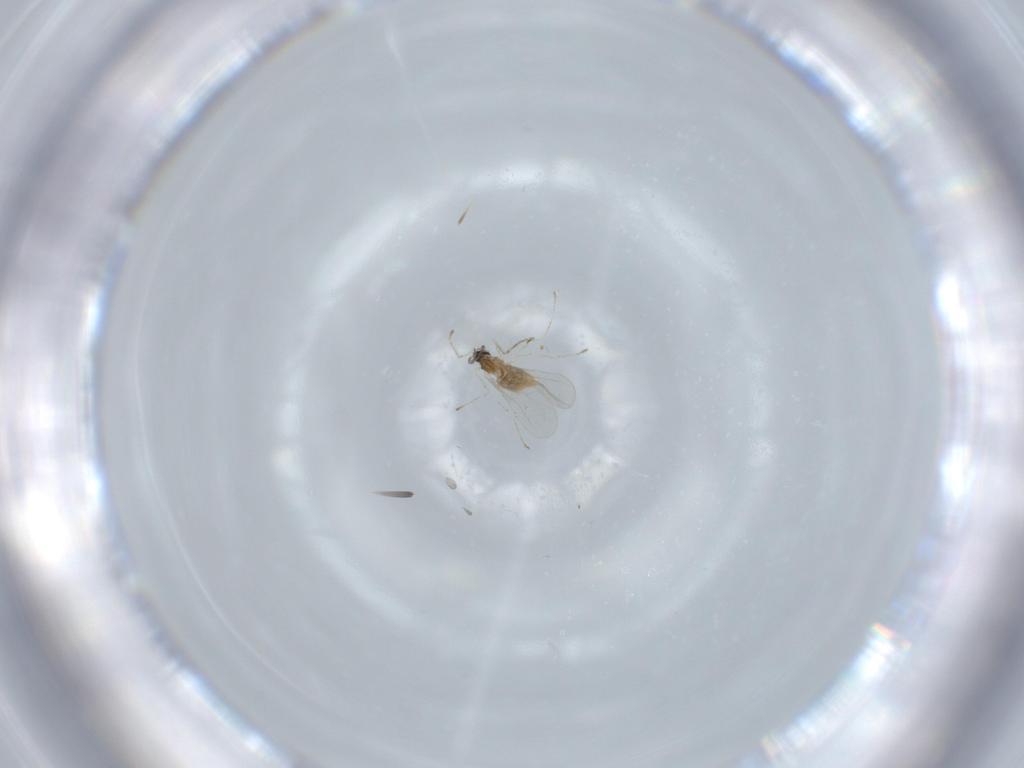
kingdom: Animalia
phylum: Arthropoda
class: Insecta
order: Diptera
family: Cecidomyiidae
